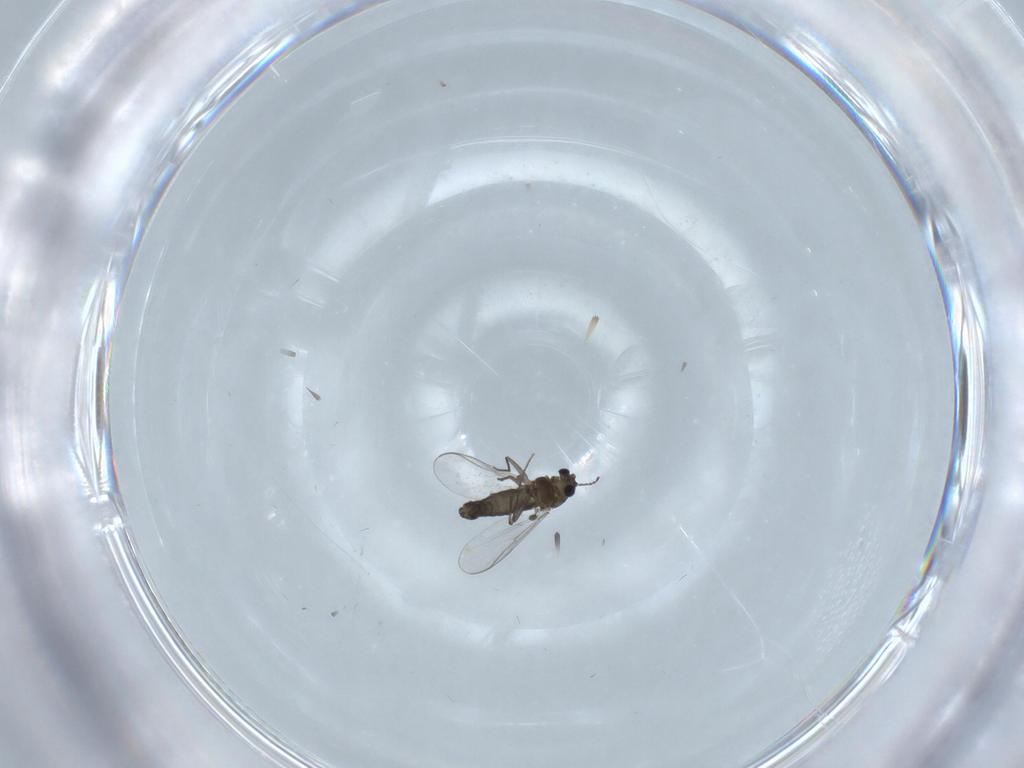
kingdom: Animalia
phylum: Arthropoda
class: Insecta
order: Diptera
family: Chironomidae
